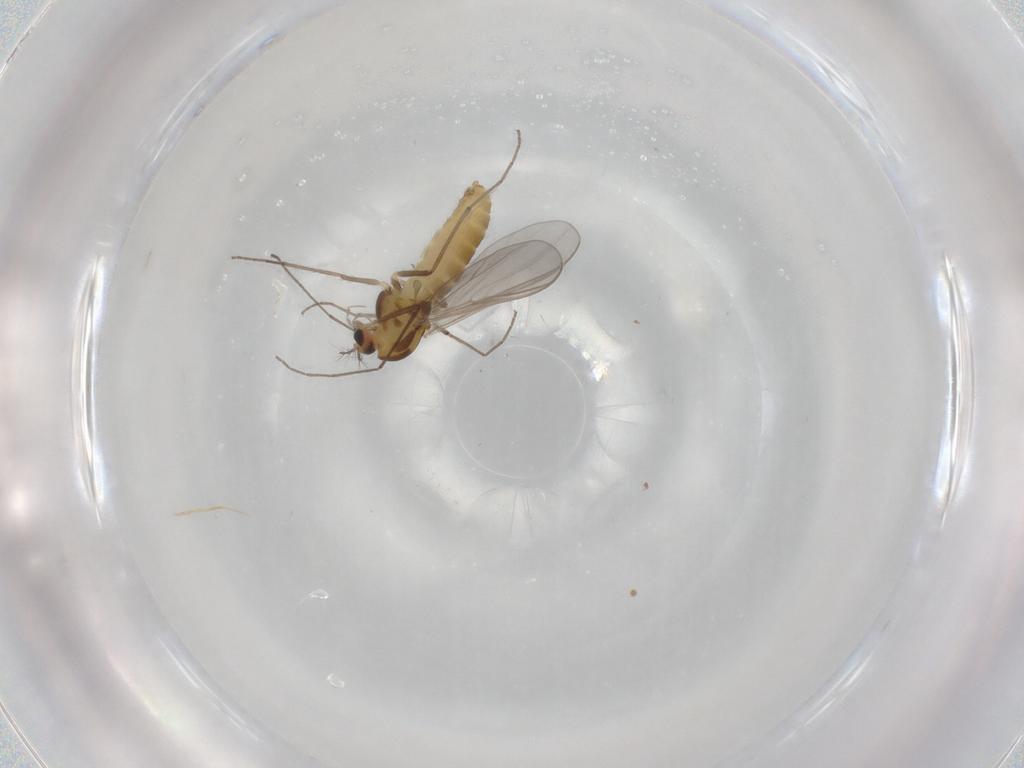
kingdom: Animalia
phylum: Arthropoda
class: Insecta
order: Diptera
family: Chironomidae
